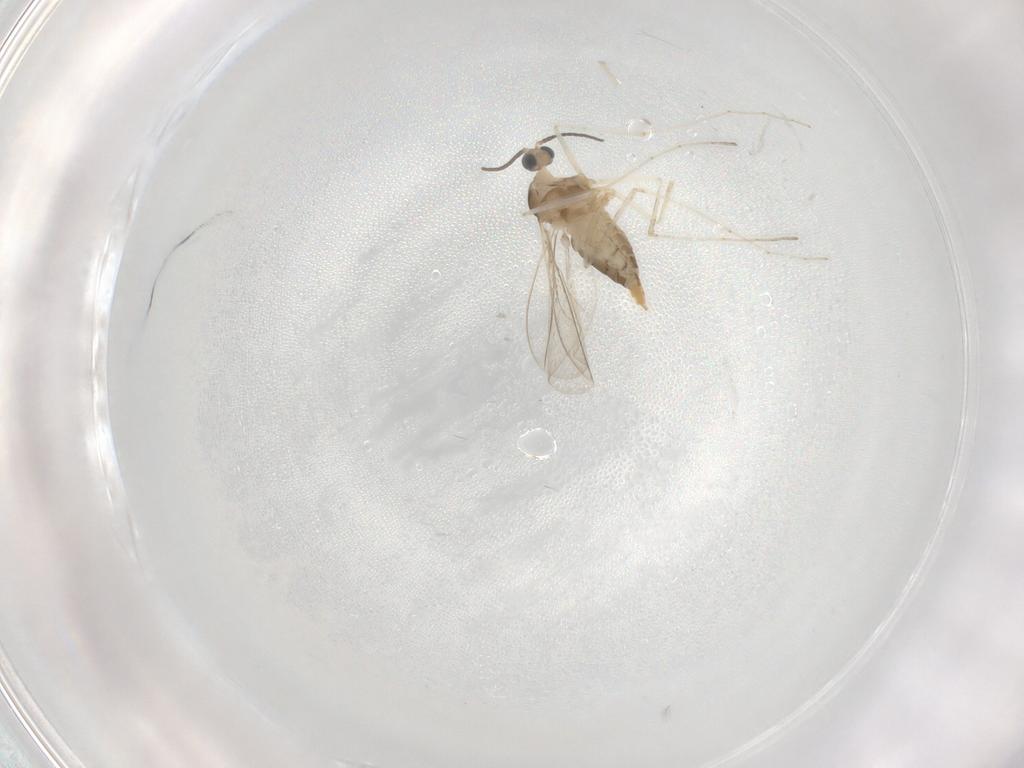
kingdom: Animalia
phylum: Arthropoda
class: Insecta
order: Diptera
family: Cecidomyiidae
